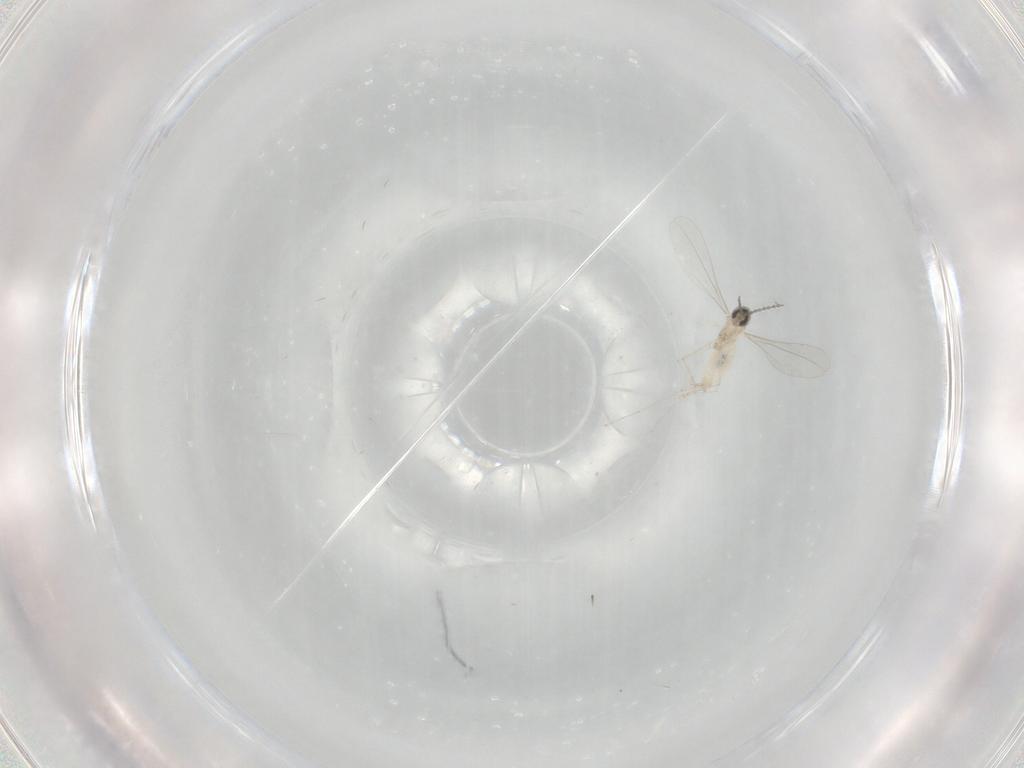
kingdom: Animalia
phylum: Arthropoda
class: Insecta
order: Diptera
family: Cecidomyiidae
